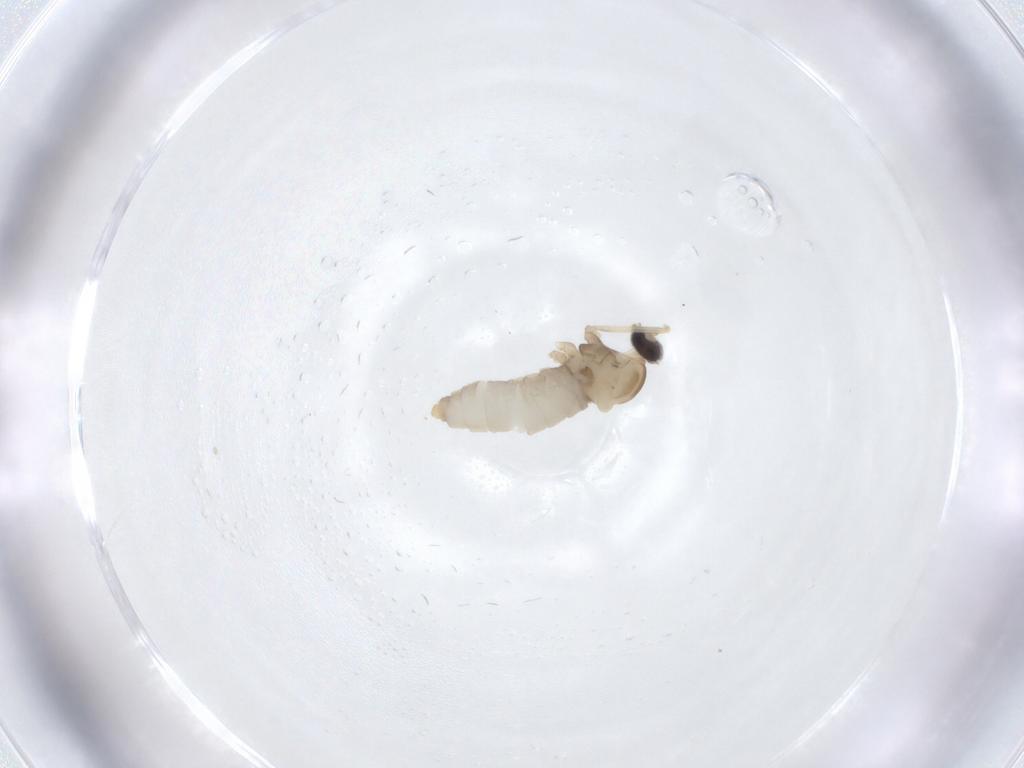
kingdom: Animalia
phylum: Arthropoda
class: Insecta
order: Diptera
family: Cecidomyiidae
